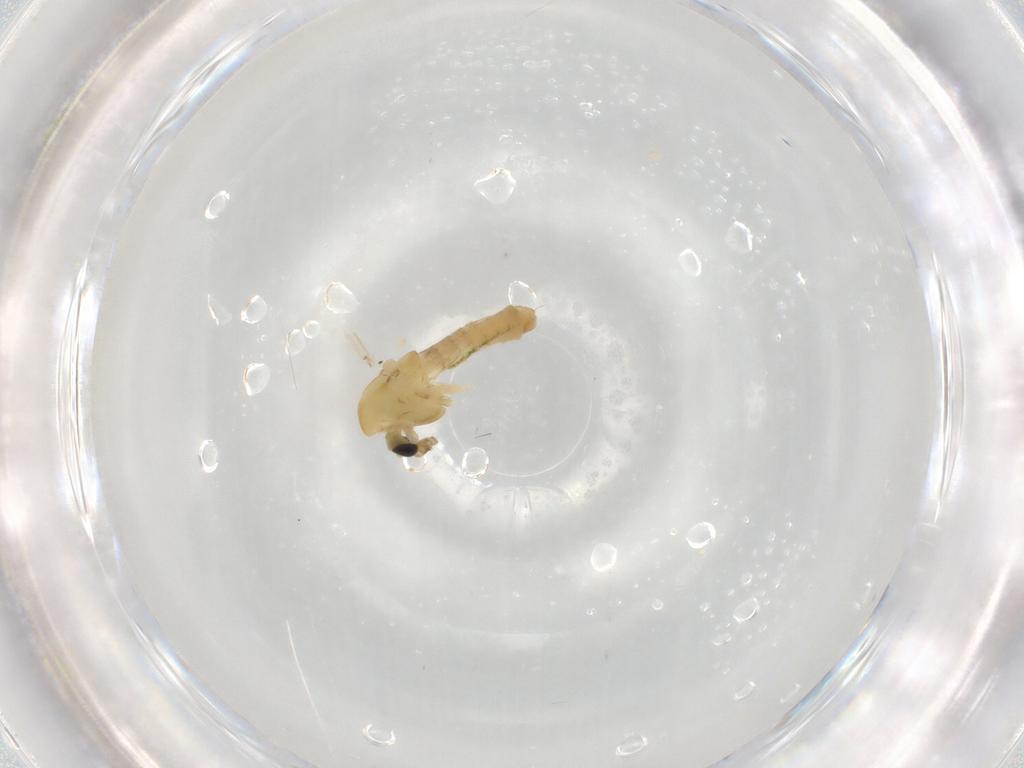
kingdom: Animalia
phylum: Arthropoda
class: Insecta
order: Diptera
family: Chironomidae
